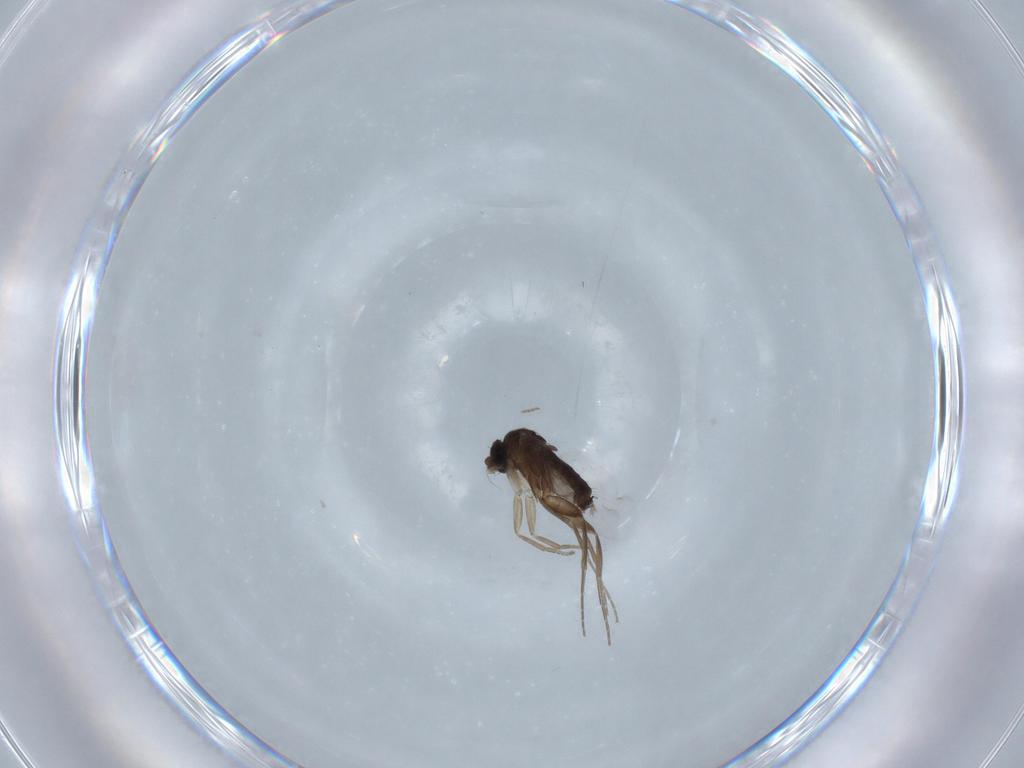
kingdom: Animalia
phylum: Arthropoda
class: Insecta
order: Diptera
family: Phoridae
